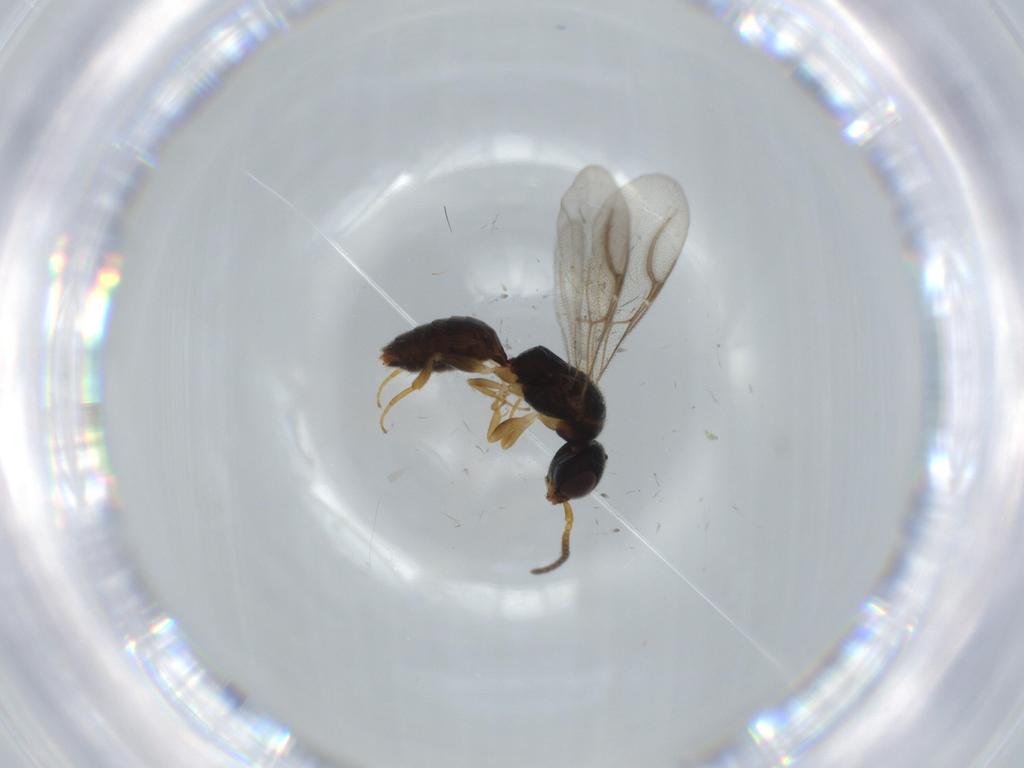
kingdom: Animalia
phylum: Arthropoda
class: Insecta
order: Hymenoptera
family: Bethylidae
